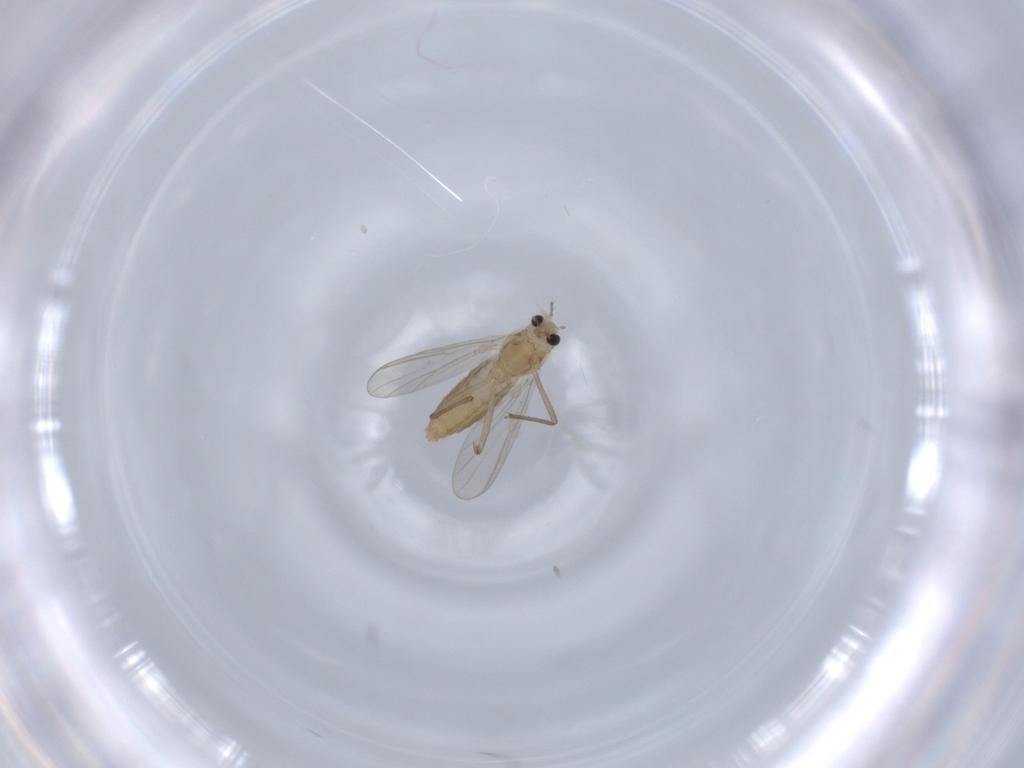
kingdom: Animalia
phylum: Arthropoda
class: Insecta
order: Diptera
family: Chironomidae
